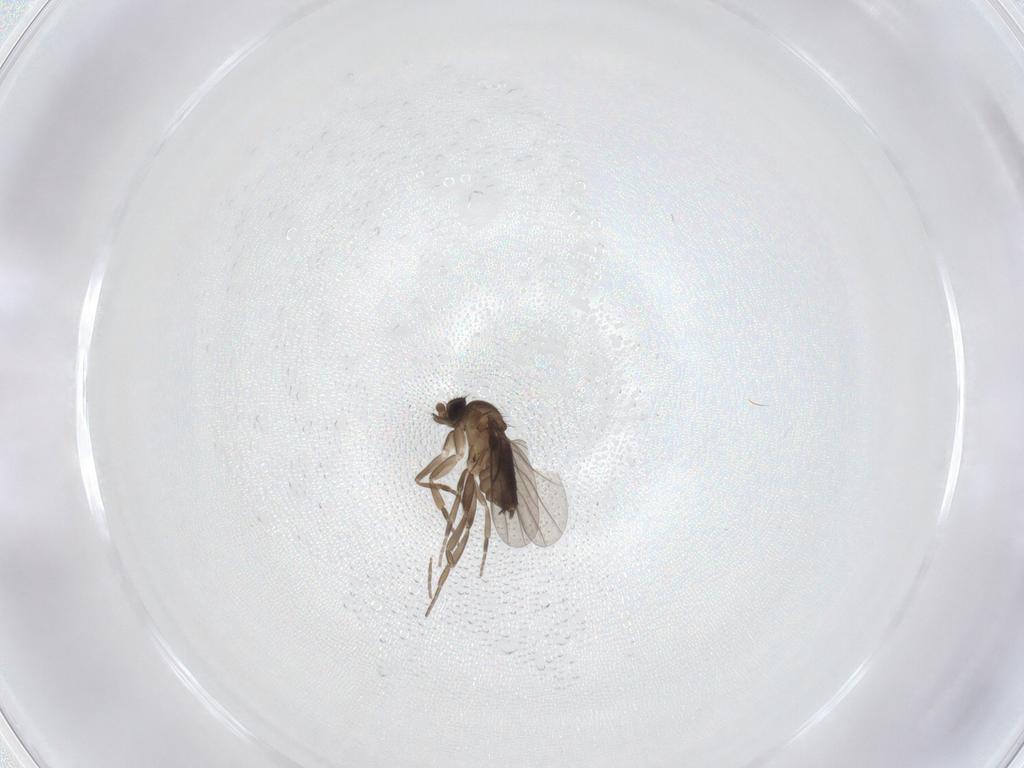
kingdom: Animalia
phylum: Arthropoda
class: Insecta
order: Diptera
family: Phoridae
